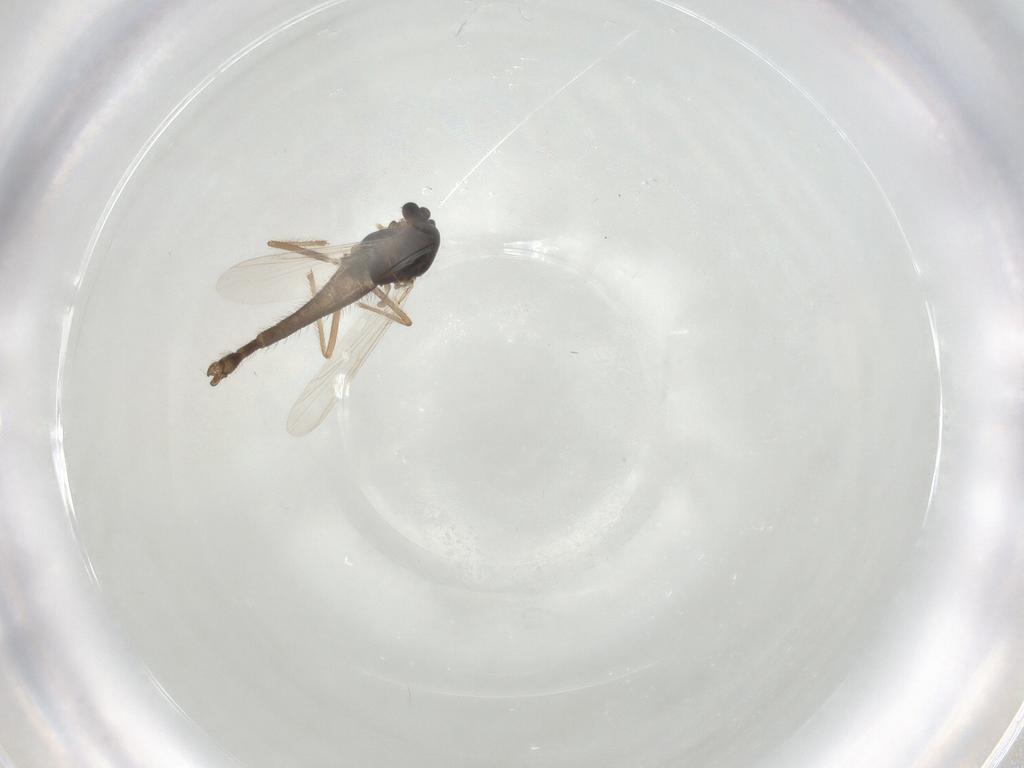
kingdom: Animalia
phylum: Arthropoda
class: Insecta
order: Diptera
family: Chironomidae
